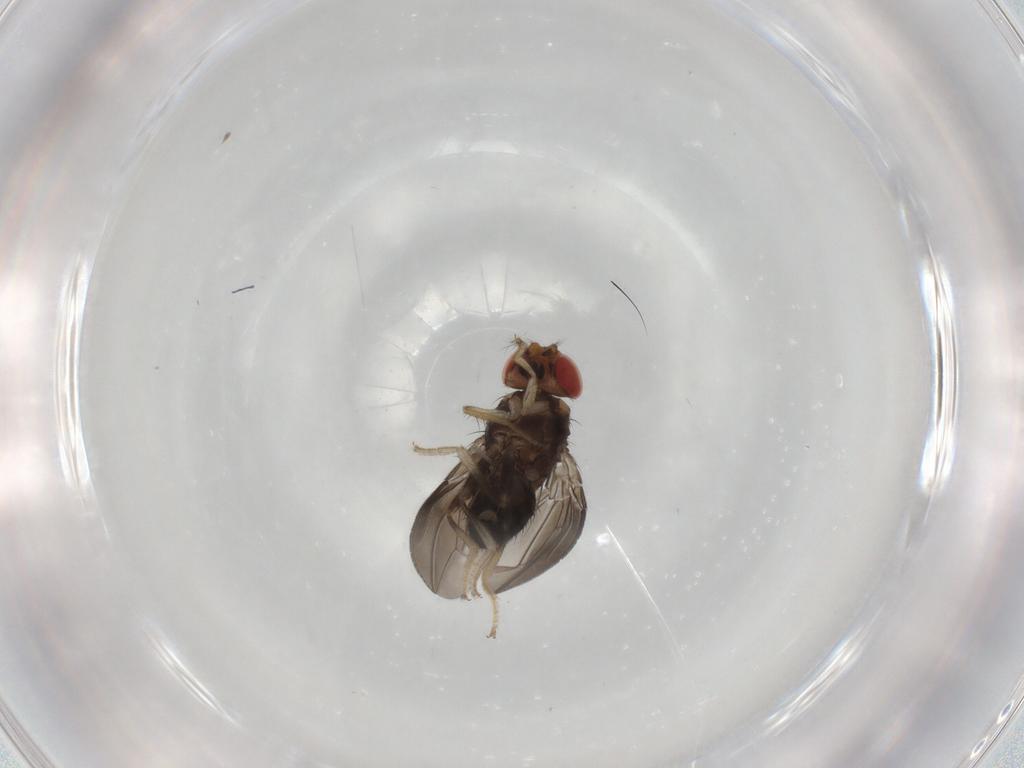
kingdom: Animalia
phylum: Arthropoda
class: Insecta
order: Diptera
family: Drosophilidae
